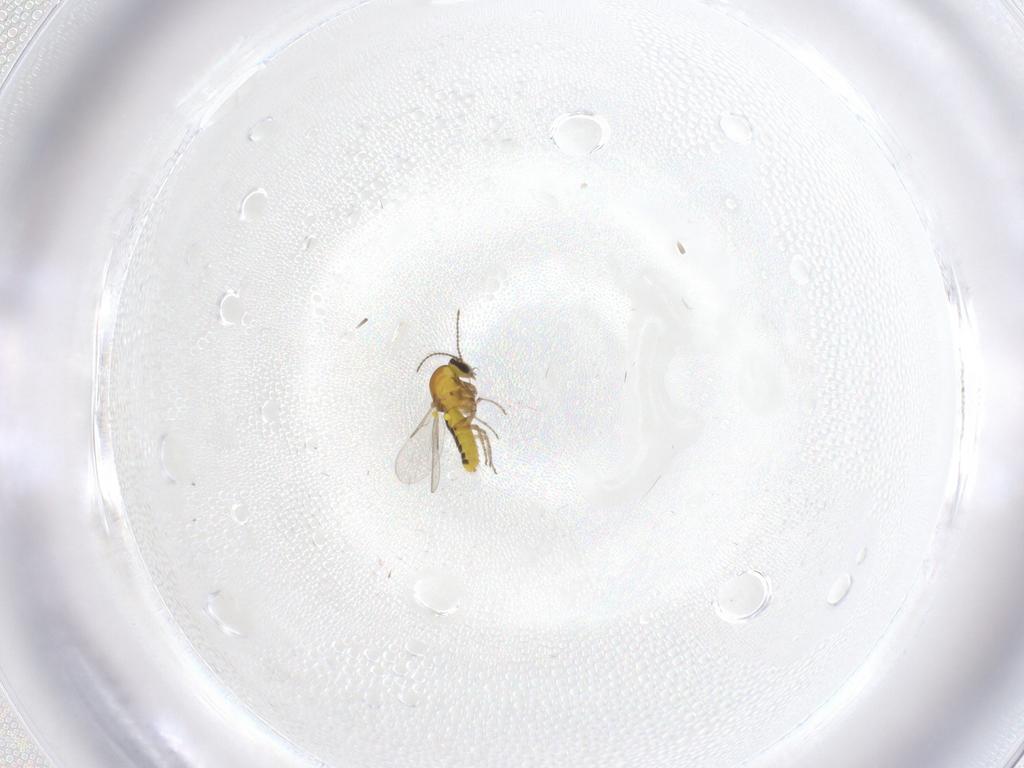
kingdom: Animalia
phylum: Arthropoda
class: Insecta
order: Diptera
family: Ceratopogonidae
